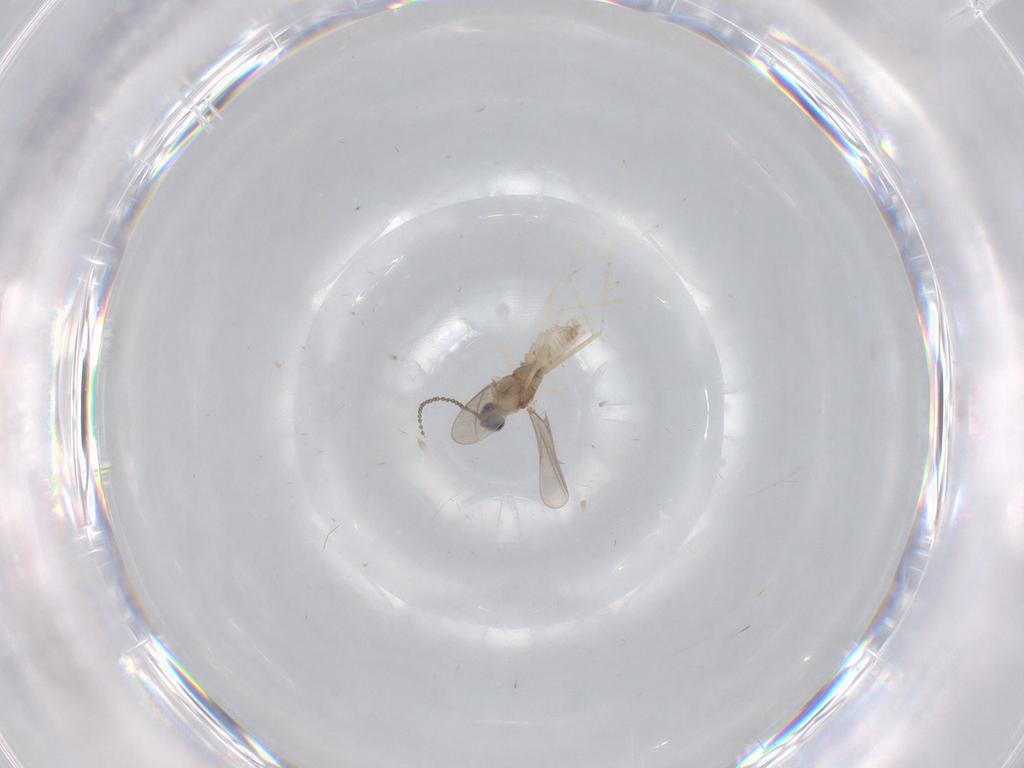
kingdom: Animalia
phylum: Arthropoda
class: Insecta
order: Diptera
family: Cecidomyiidae
